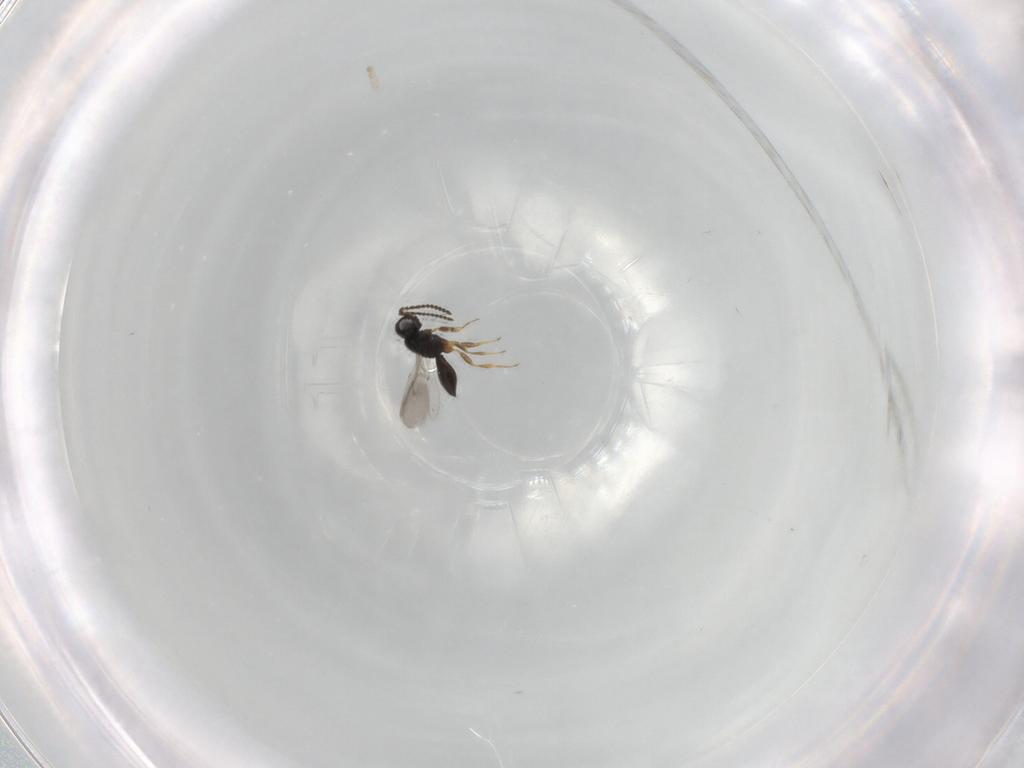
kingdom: Animalia
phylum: Arthropoda
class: Insecta
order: Hymenoptera
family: Scelionidae
